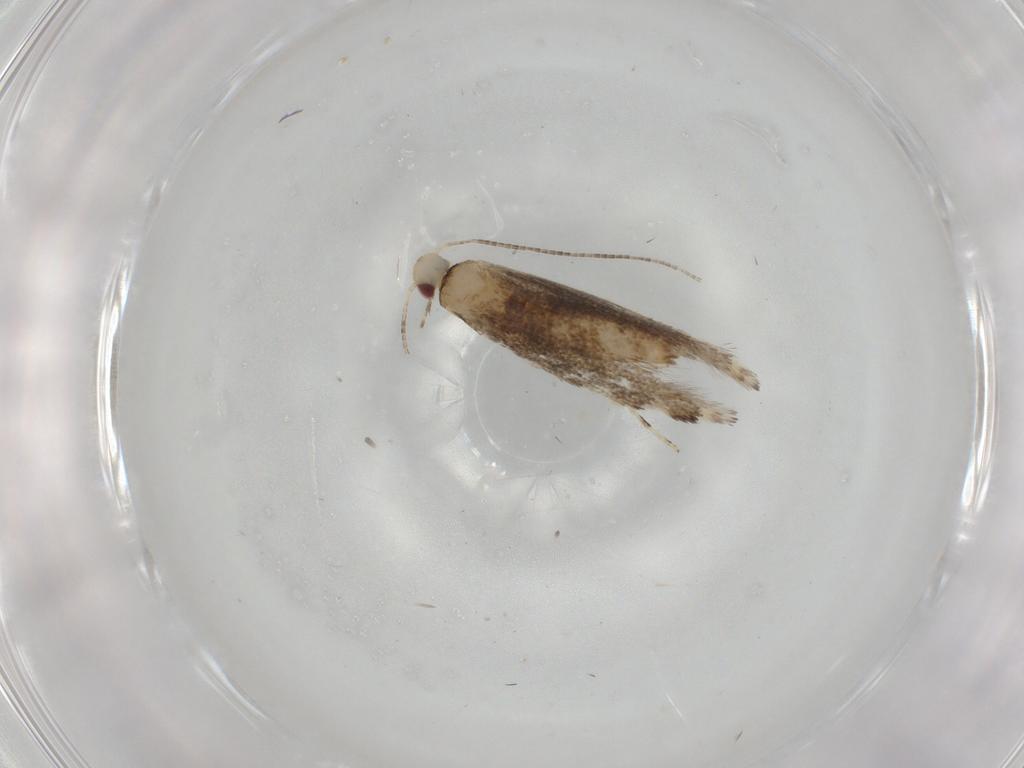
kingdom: Animalia
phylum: Arthropoda
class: Insecta
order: Lepidoptera
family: Gracillariidae
